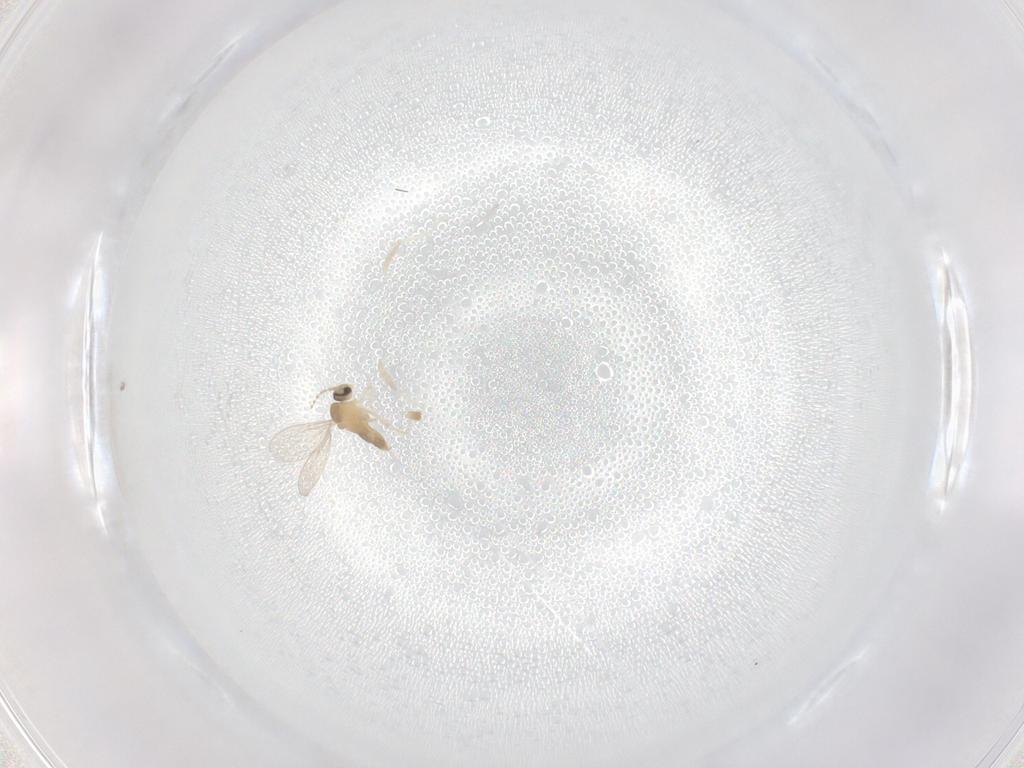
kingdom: Animalia
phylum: Arthropoda
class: Insecta
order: Diptera
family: Cecidomyiidae
